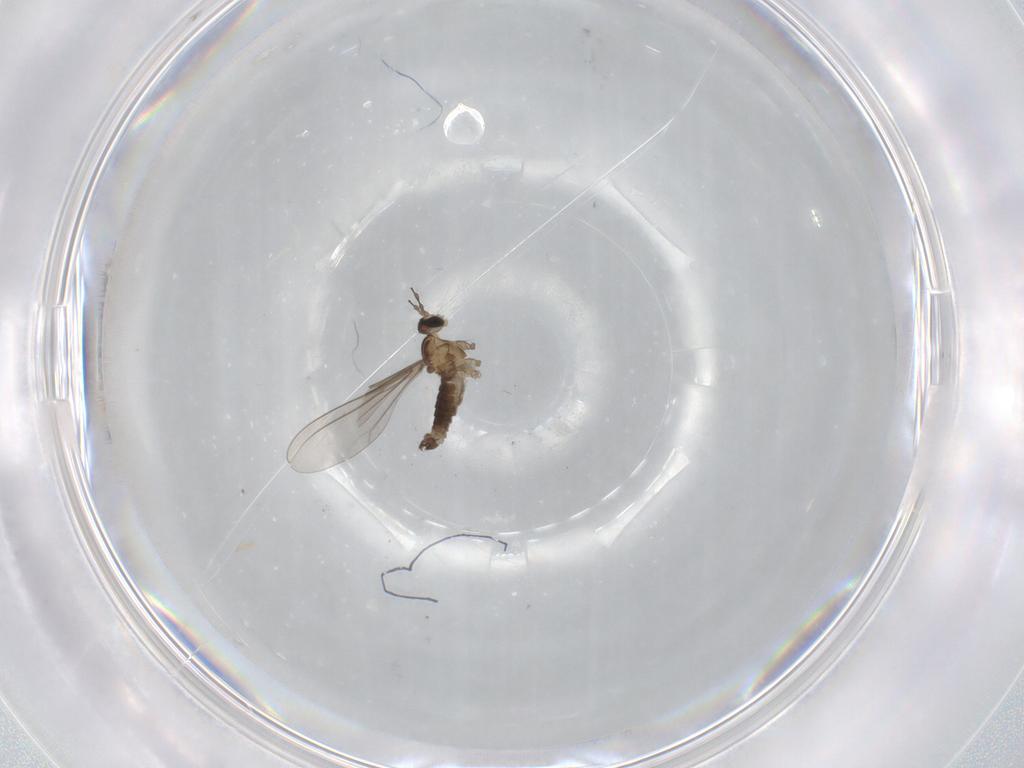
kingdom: Animalia
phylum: Arthropoda
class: Insecta
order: Diptera
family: Cecidomyiidae
